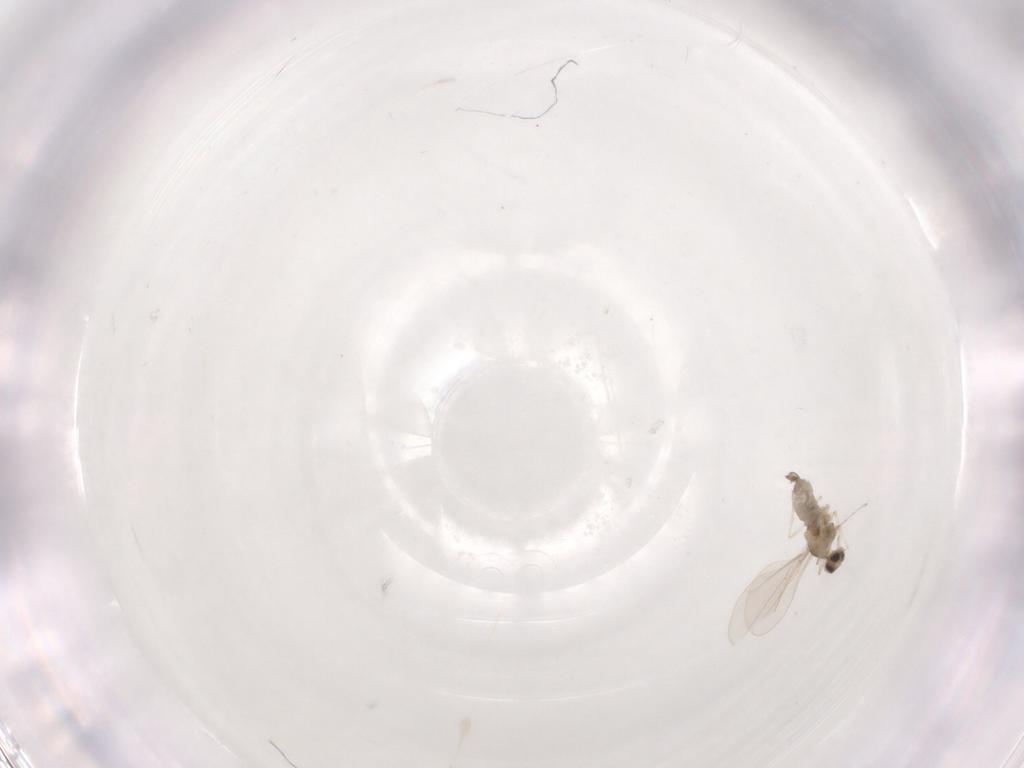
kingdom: Animalia
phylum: Arthropoda
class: Insecta
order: Diptera
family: Cecidomyiidae
